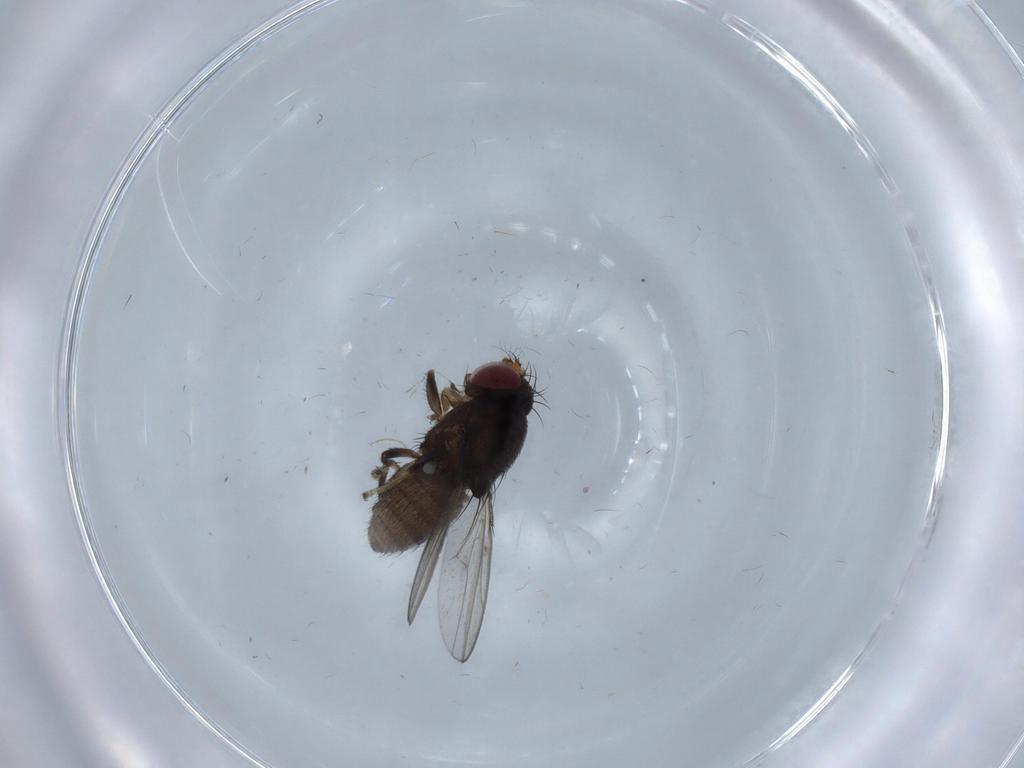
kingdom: Animalia
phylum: Arthropoda
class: Insecta
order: Diptera
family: Ephydridae
